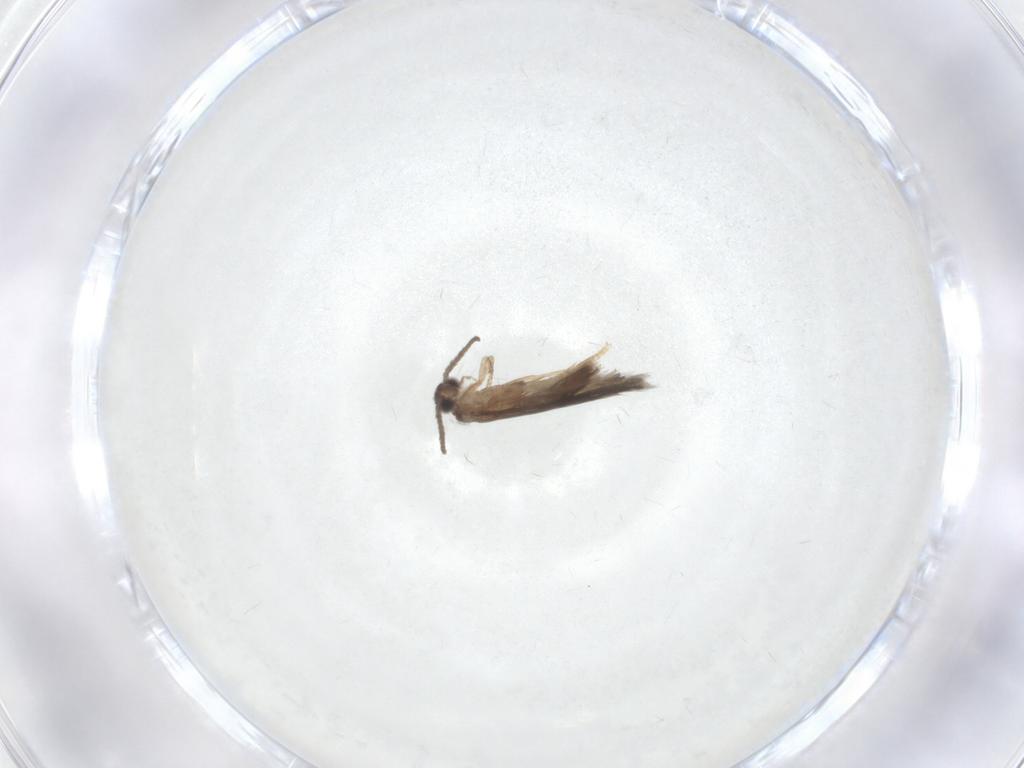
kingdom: Animalia
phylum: Arthropoda
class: Insecta
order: Trichoptera
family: Hydroptilidae
